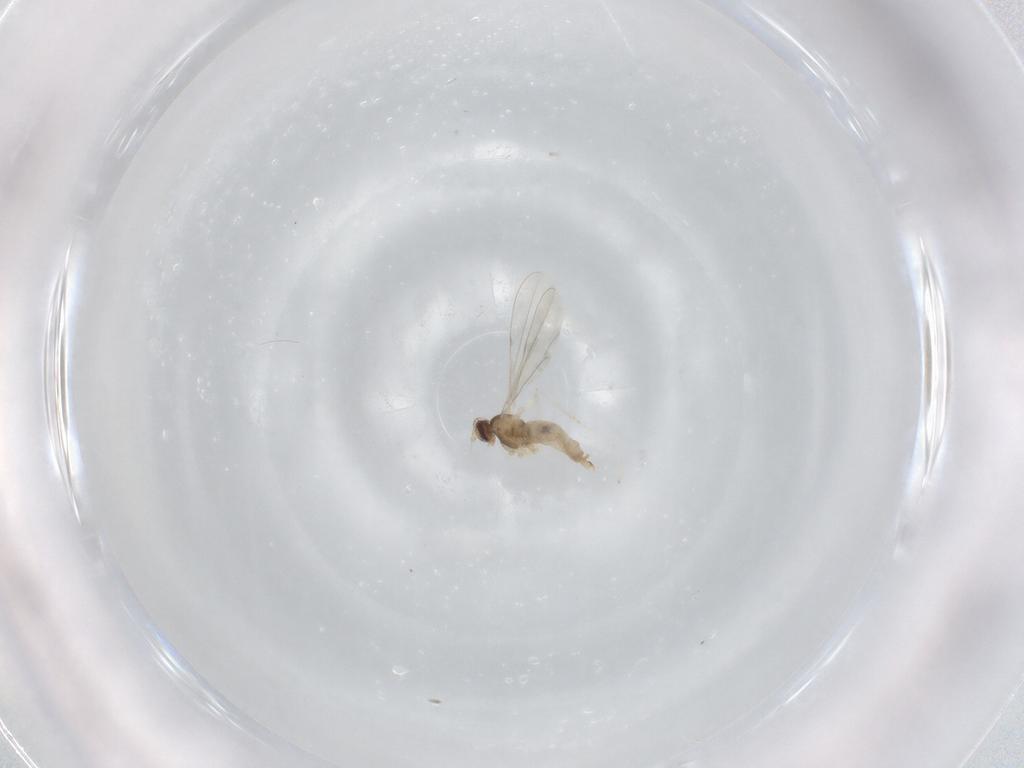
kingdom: Animalia
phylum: Arthropoda
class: Insecta
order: Diptera
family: Cecidomyiidae
